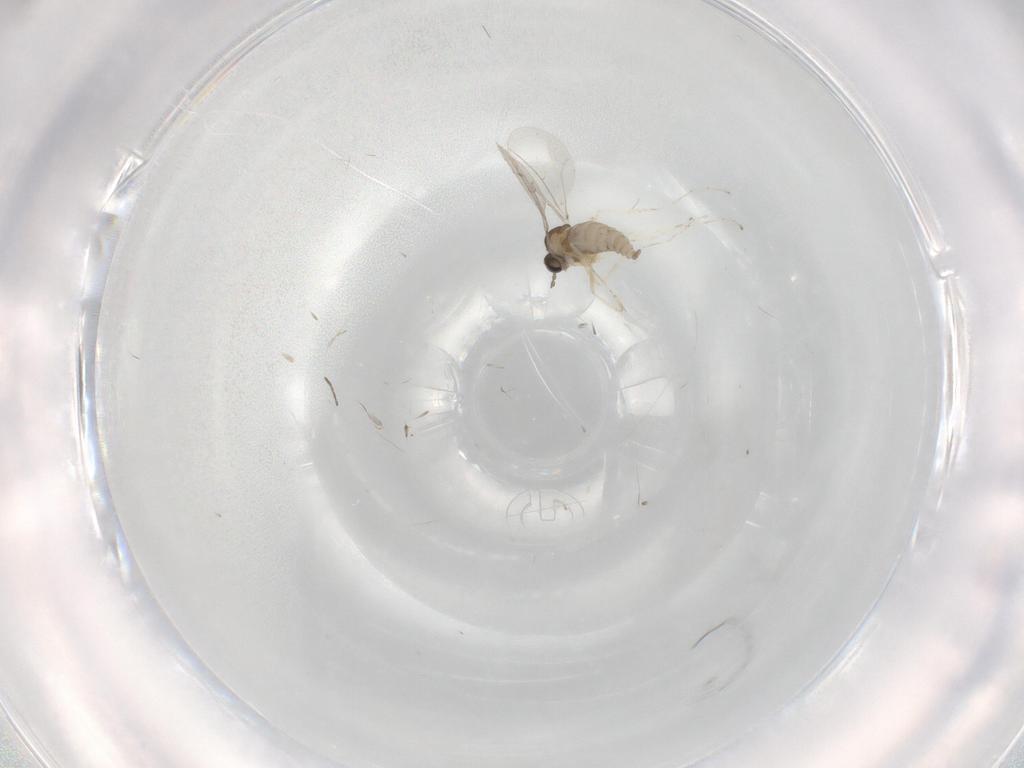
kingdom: Animalia
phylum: Arthropoda
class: Insecta
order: Diptera
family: Cecidomyiidae
